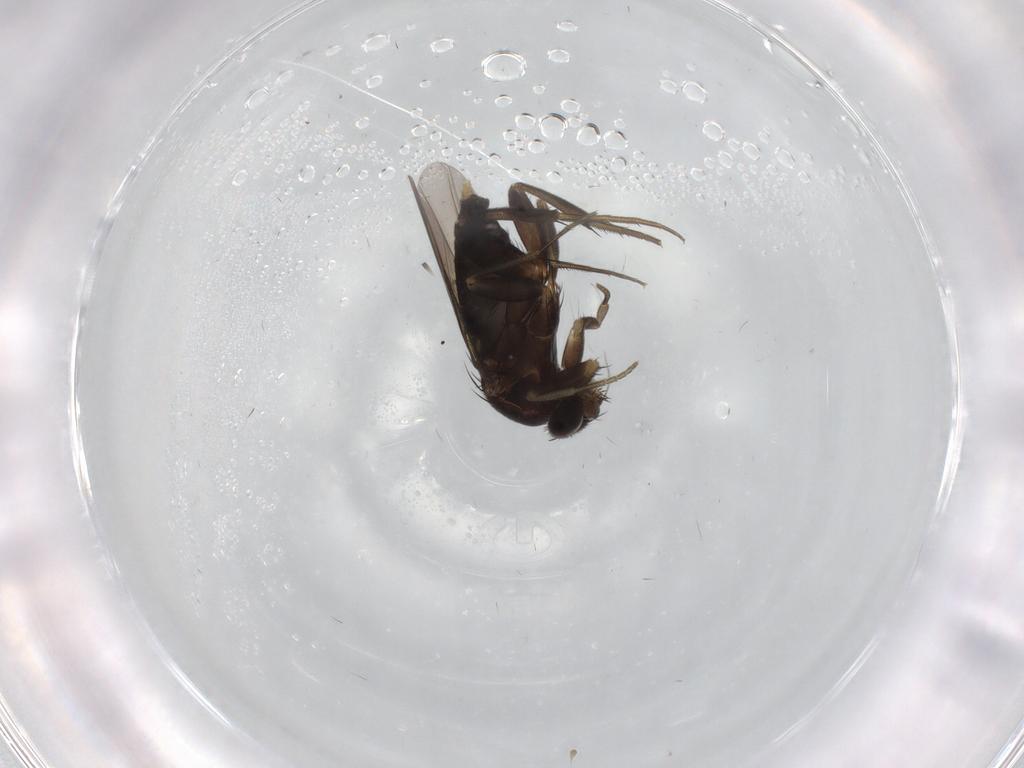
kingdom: Animalia
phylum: Arthropoda
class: Insecta
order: Diptera
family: Phoridae
